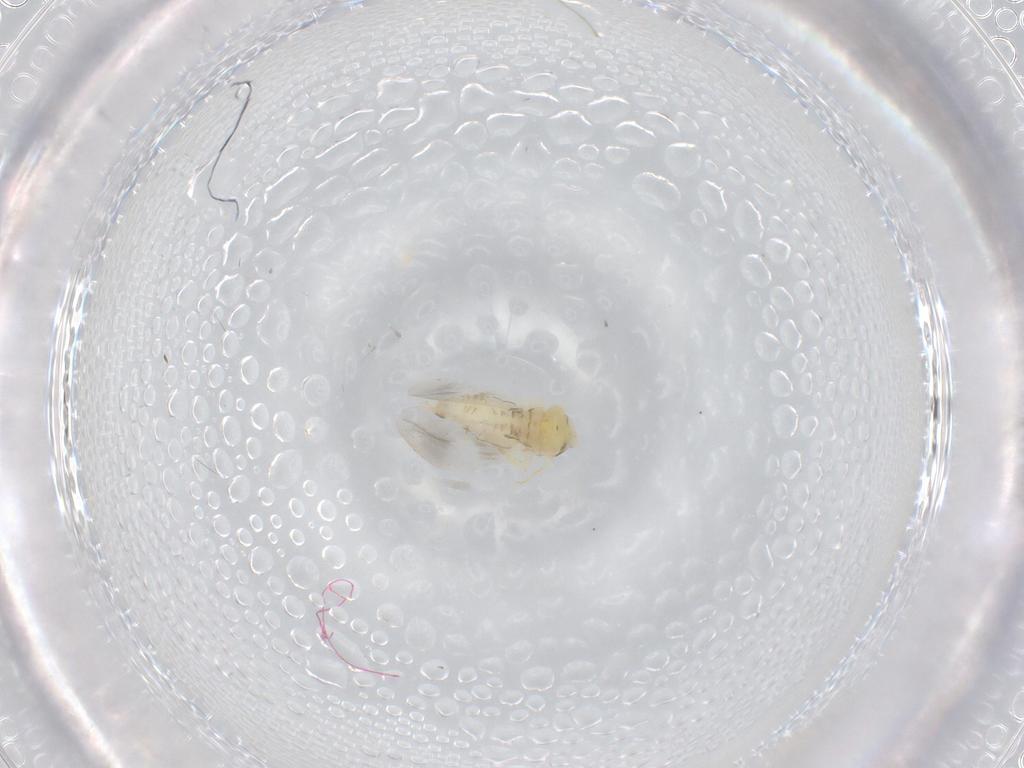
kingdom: Animalia
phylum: Arthropoda
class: Insecta
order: Hemiptera
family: Aleyrodidae
